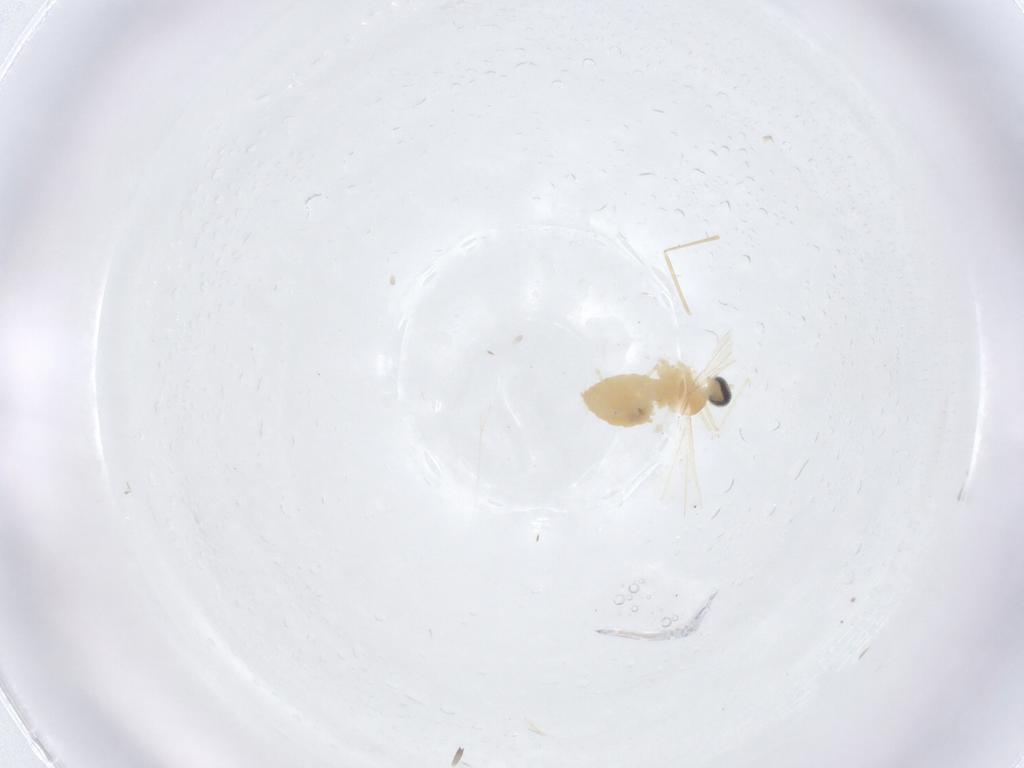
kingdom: Animalia
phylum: Arthropoda
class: Insecta
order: Diptera
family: Cecidomyiidae
